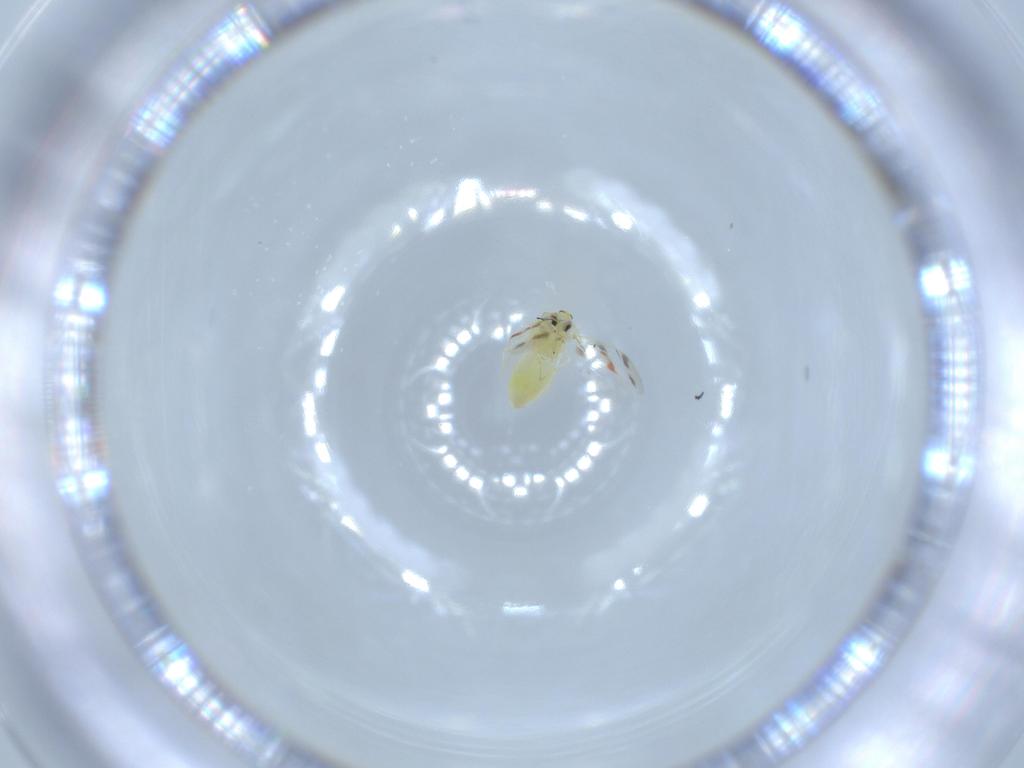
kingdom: Animalia
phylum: Arthropoda
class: Insecta
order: Hemiptera
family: Aleyrodidae
